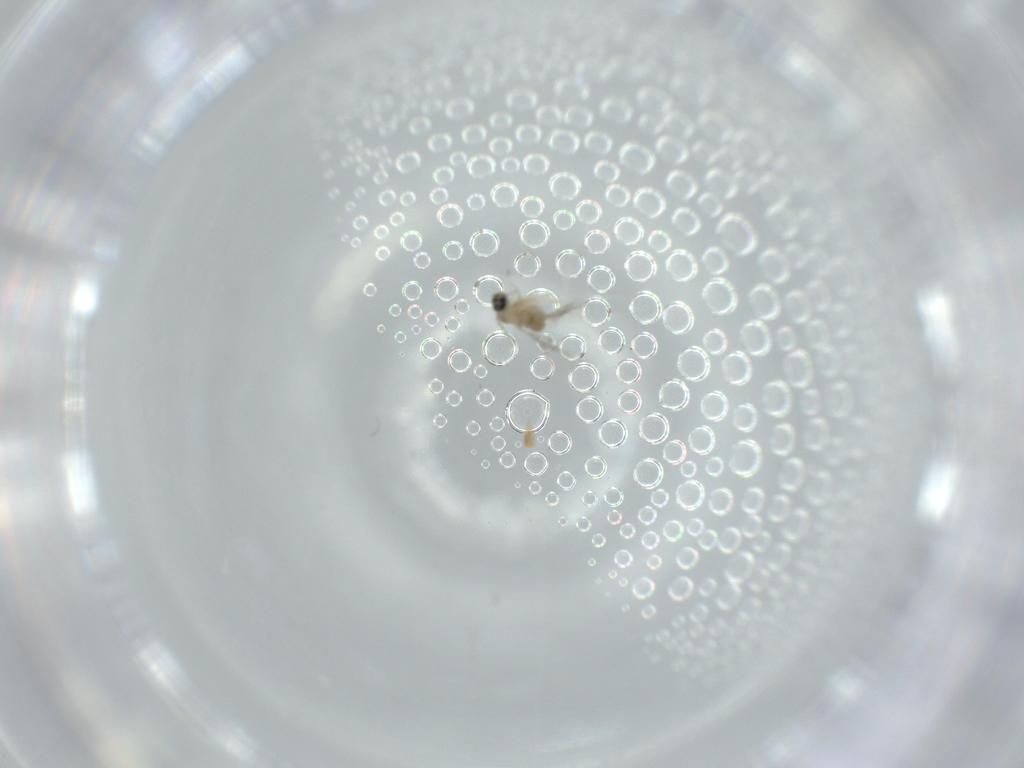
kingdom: Animalia
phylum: Arthropoda
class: Insecta
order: Diptera
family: Cecidomyiidae
